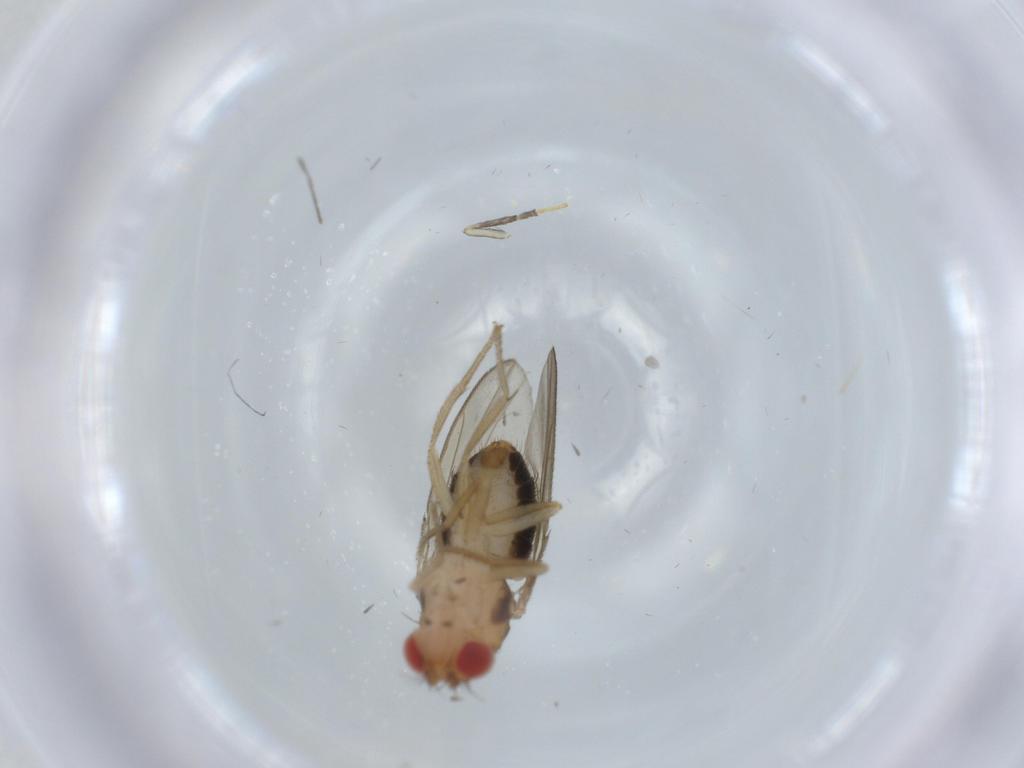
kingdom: Animalia
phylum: Arthropoda
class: Insecta
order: Diptera
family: Drosophilidae
